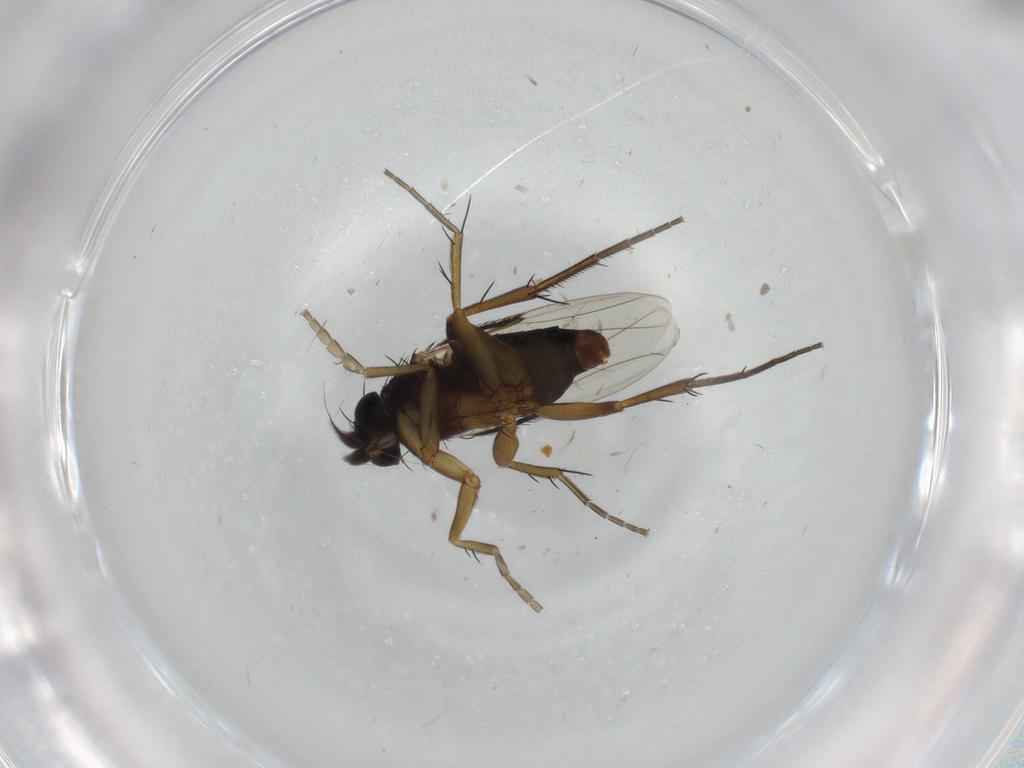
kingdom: Animalia
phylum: Arthropoda
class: Insecta
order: Diptera
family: Phoridae
